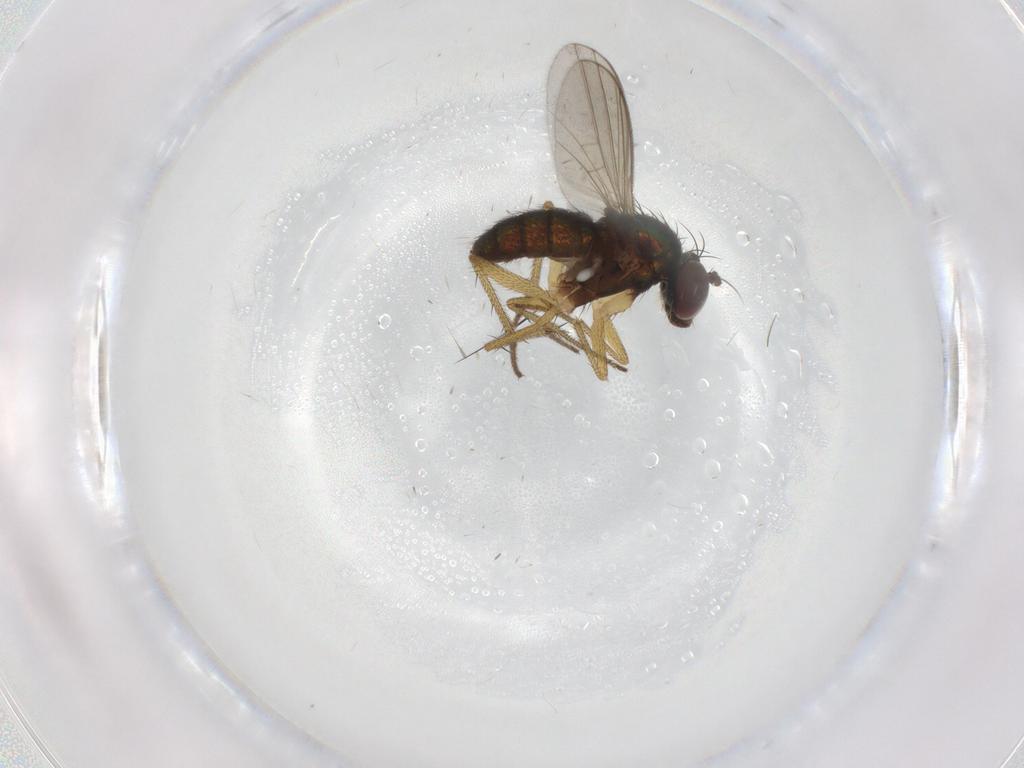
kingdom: Animalia
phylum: Arthropoda
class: Insecta
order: Diptera
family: Dolichopodidae
